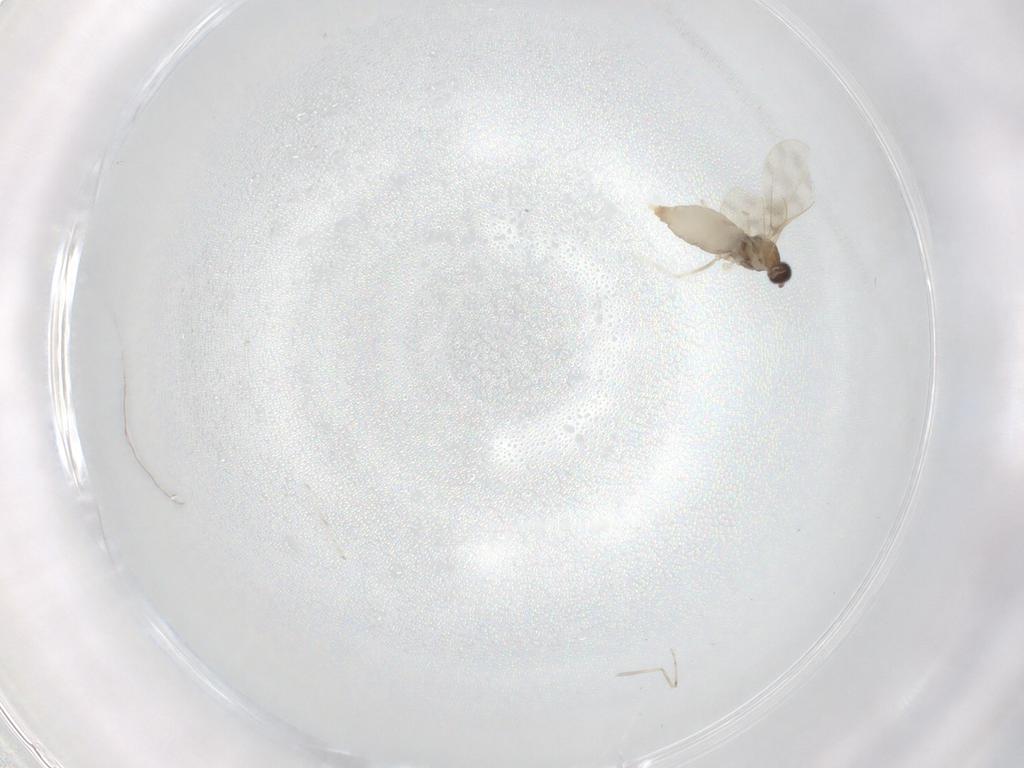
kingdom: Animalia
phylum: Arthropoda
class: Insecta
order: Diptera
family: Cecidomyiidae
